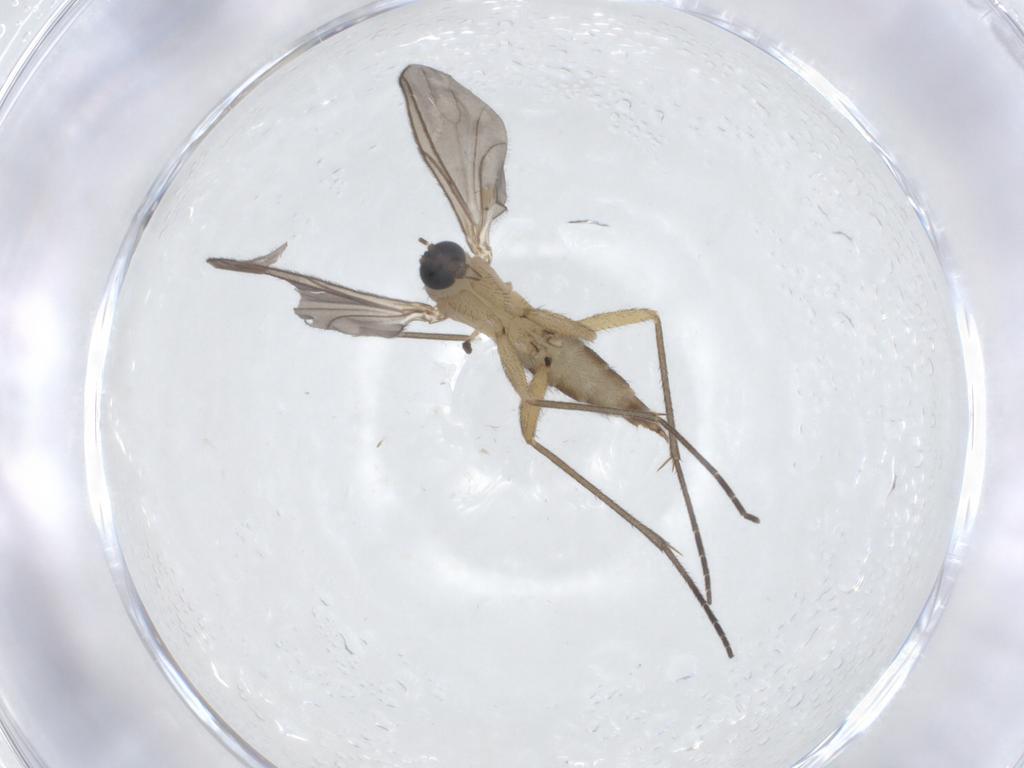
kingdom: Animalia
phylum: Arthropoda
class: Insecta
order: Diptera
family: Sciaridae
